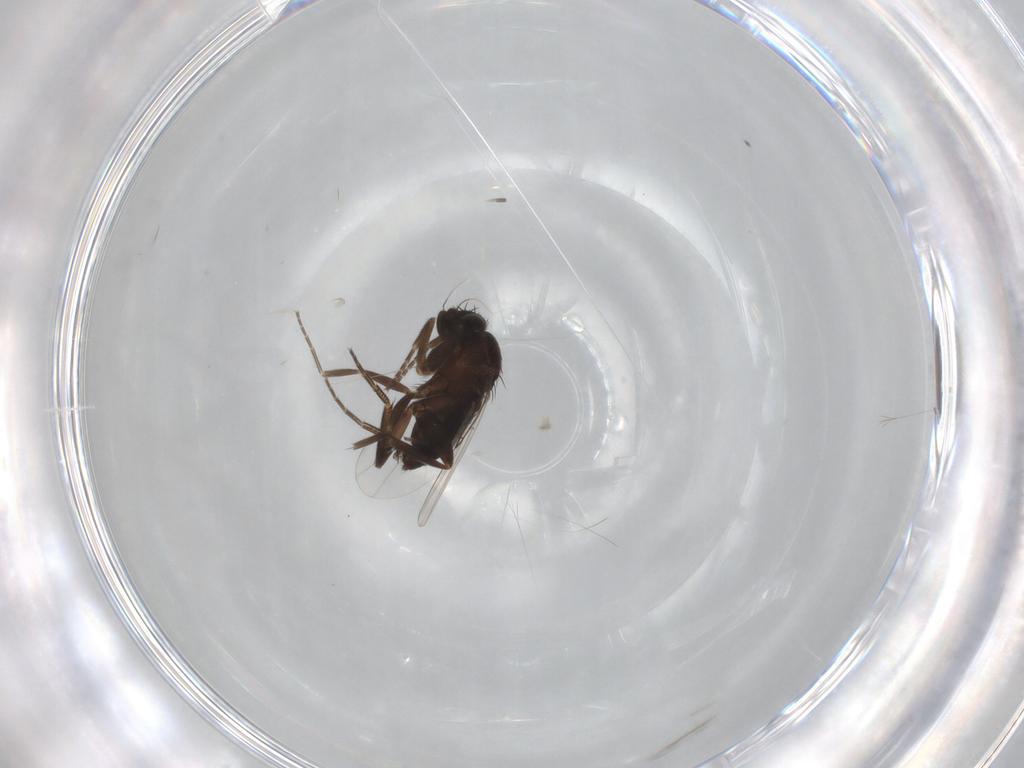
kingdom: Animalia
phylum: Arthropoda
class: Insecta
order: Diptera
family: Phoridae
